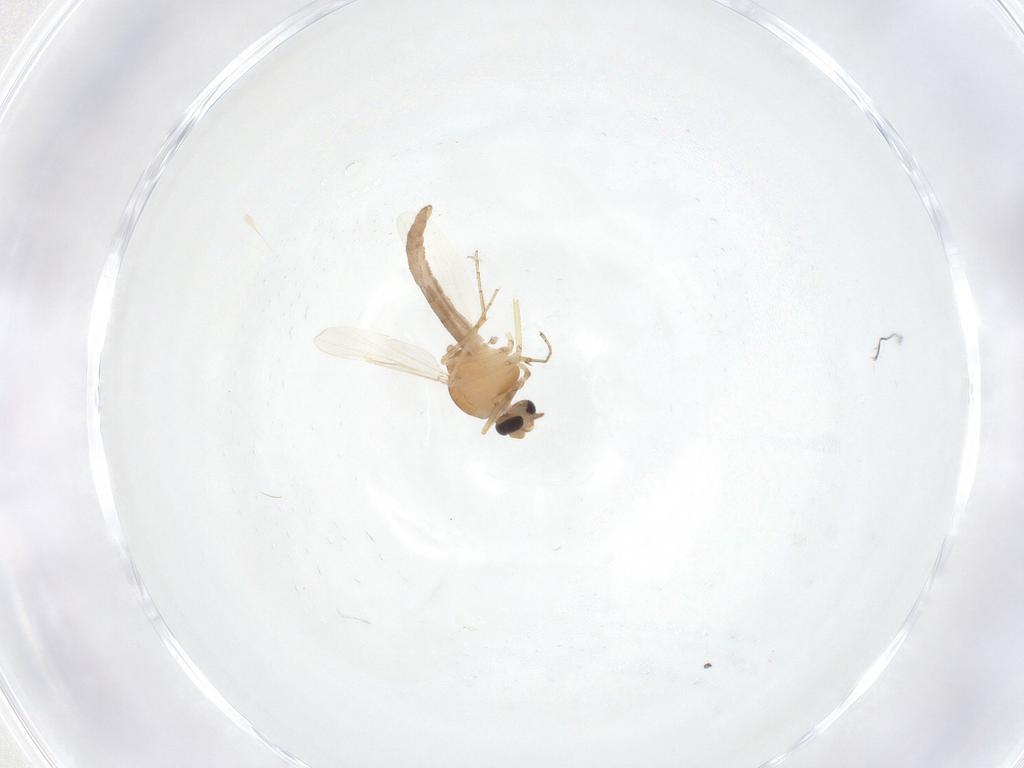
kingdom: Animalia
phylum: Arthropoda
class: Insecta
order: Diptera
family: Ceratopogonidae
